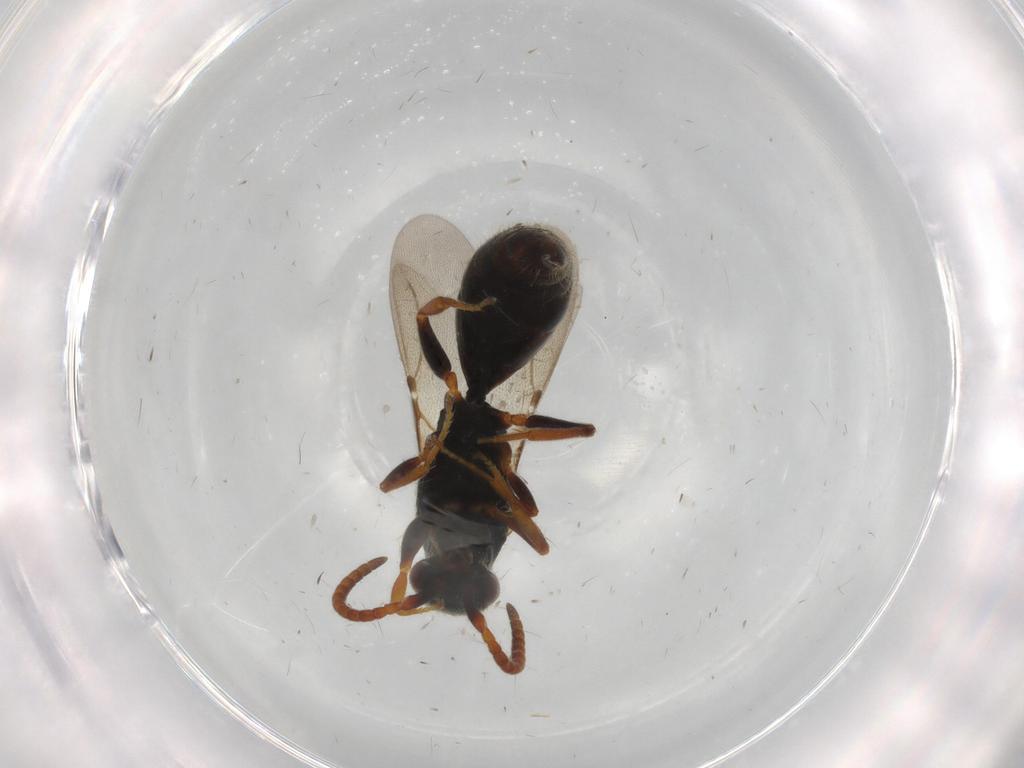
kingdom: Animalia
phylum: Arthropoda
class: Insecta
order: Hymenoptera
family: Bethylidae
